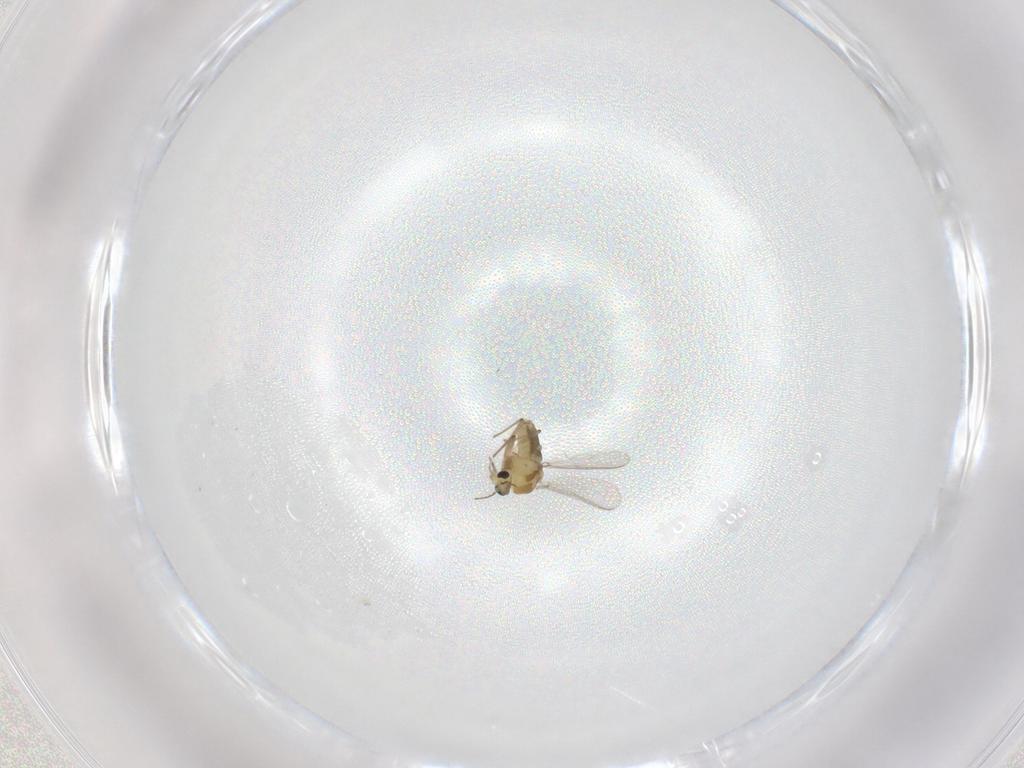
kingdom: Animalia
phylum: Arthropoda
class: Insecta
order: Diptera
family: Chironomidae
